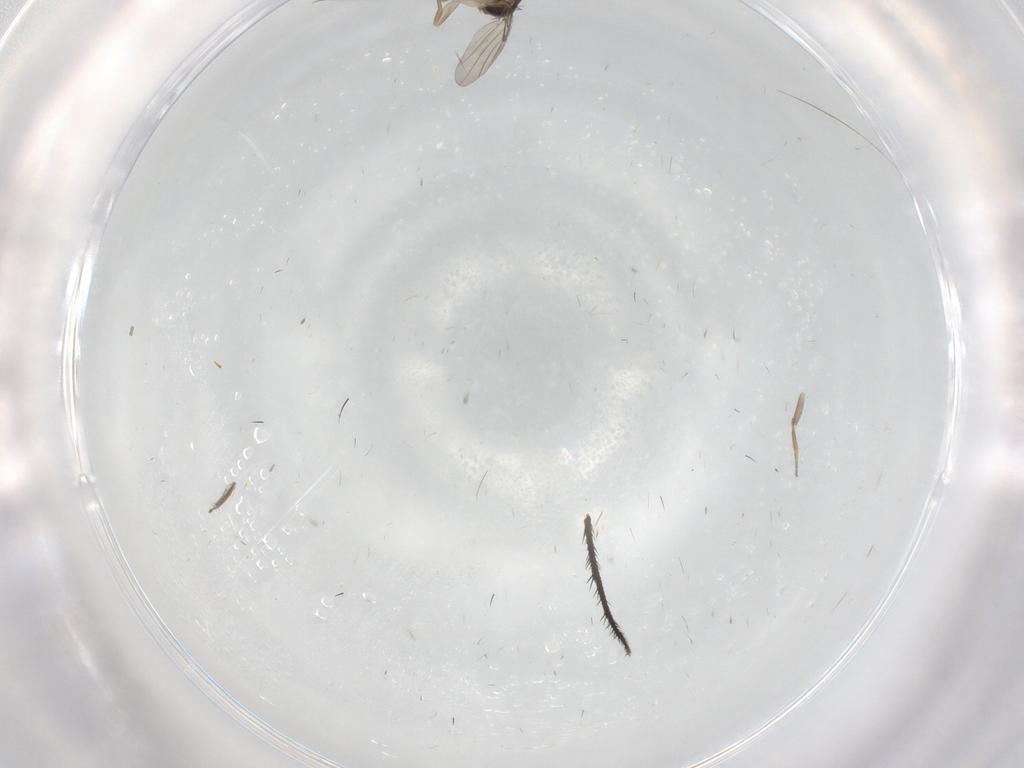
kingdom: Animalia
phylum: Arthropoda
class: Insecta
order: Diptera
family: Phoridae
